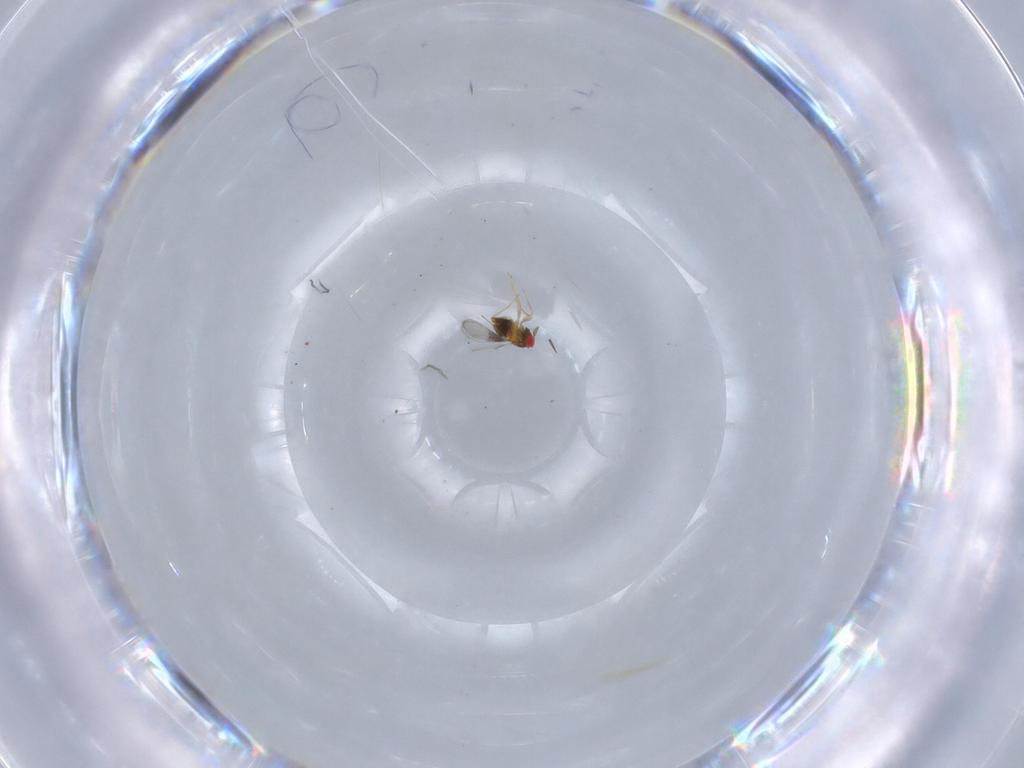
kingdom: Animalia
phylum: Arthropoda
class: Insecta
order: Hymenoptera
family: Bethylidae
